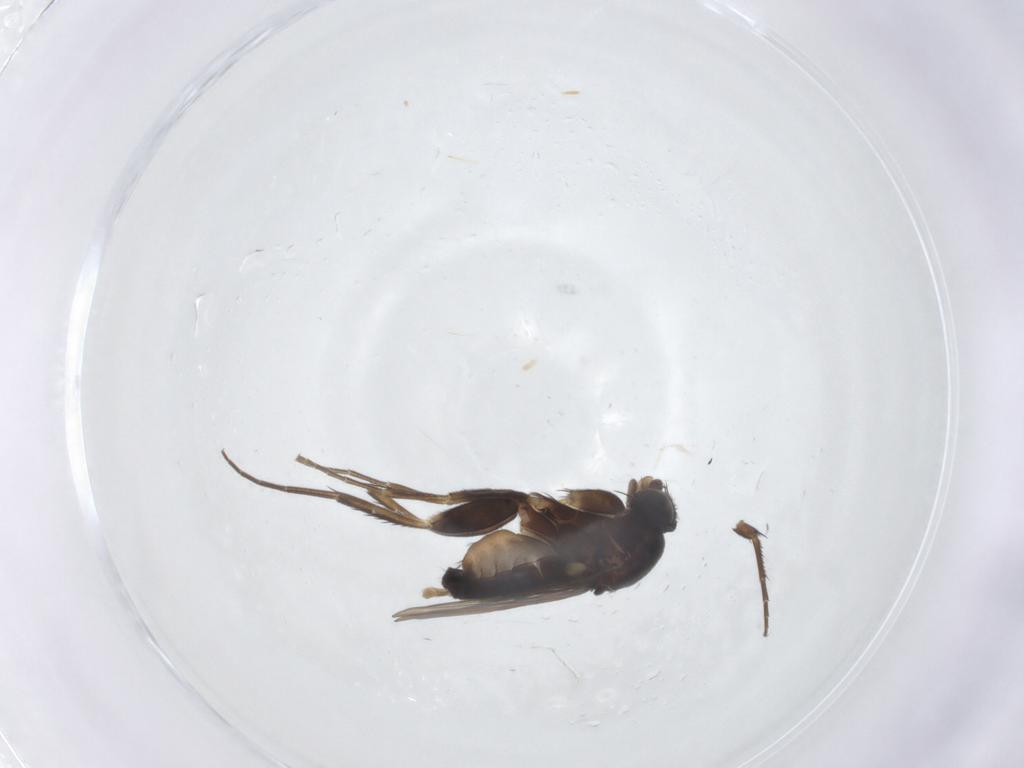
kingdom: Animalia
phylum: Arthropoda
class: Insecta
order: Diptera
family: Phoridae
